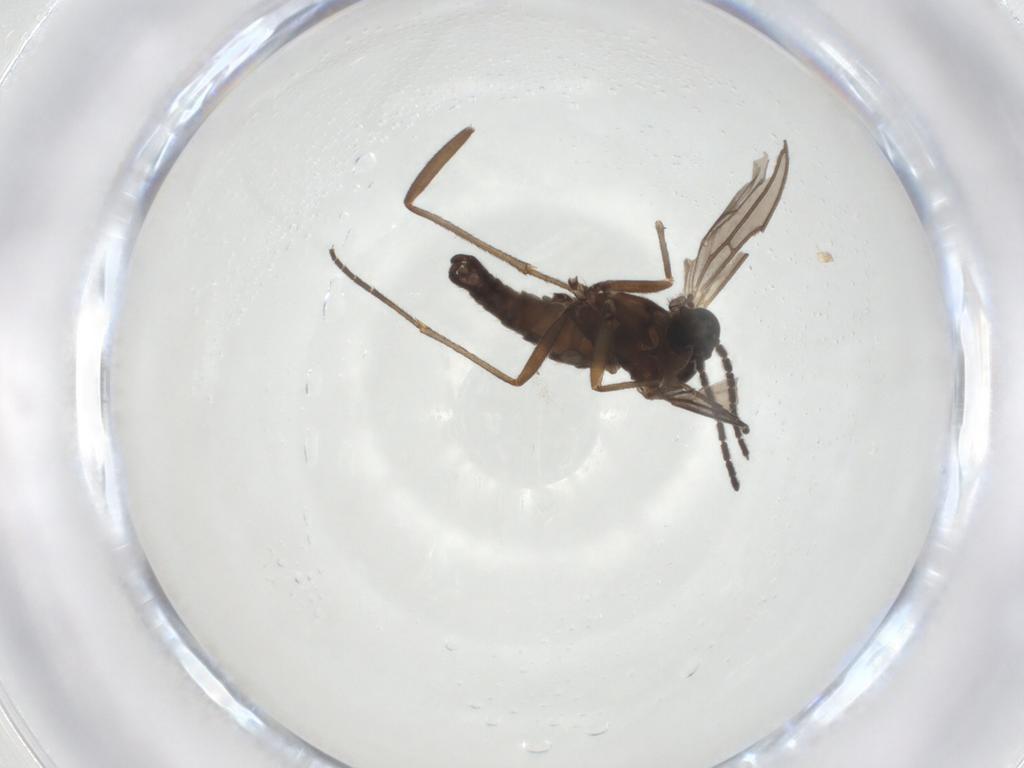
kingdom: Animalia
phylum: Arthropoda
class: Insecta
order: Diptera
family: Sciaridae
